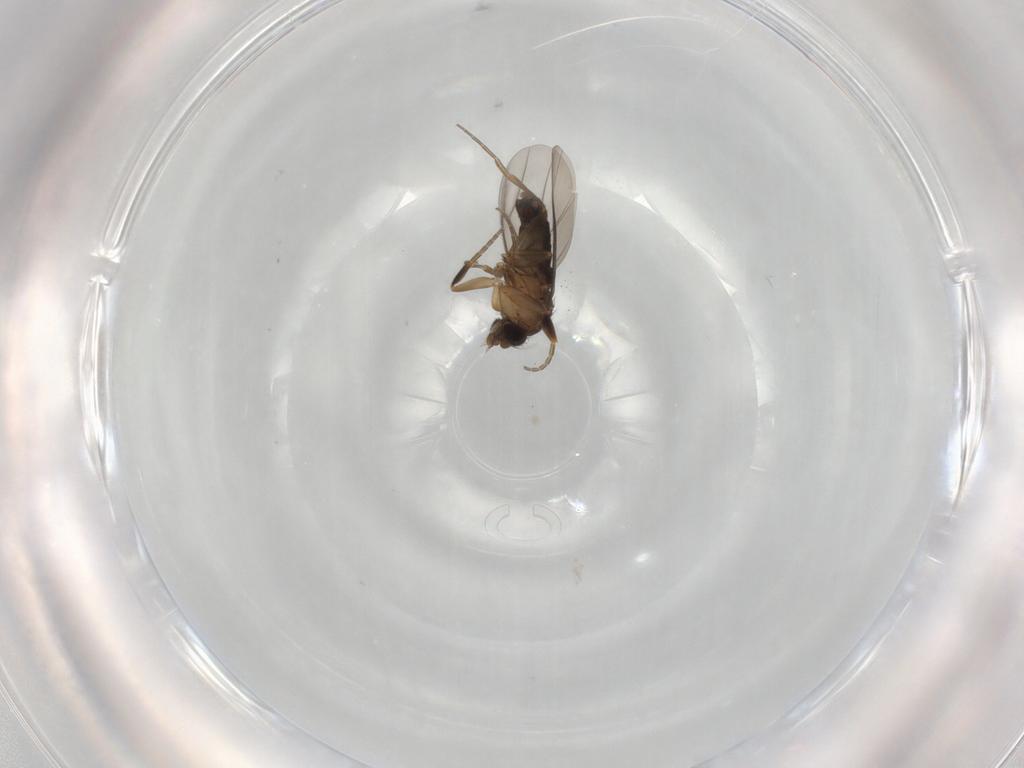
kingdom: Animalia
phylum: Arthropoda
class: Insecta
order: Diptera
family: Phoridae
